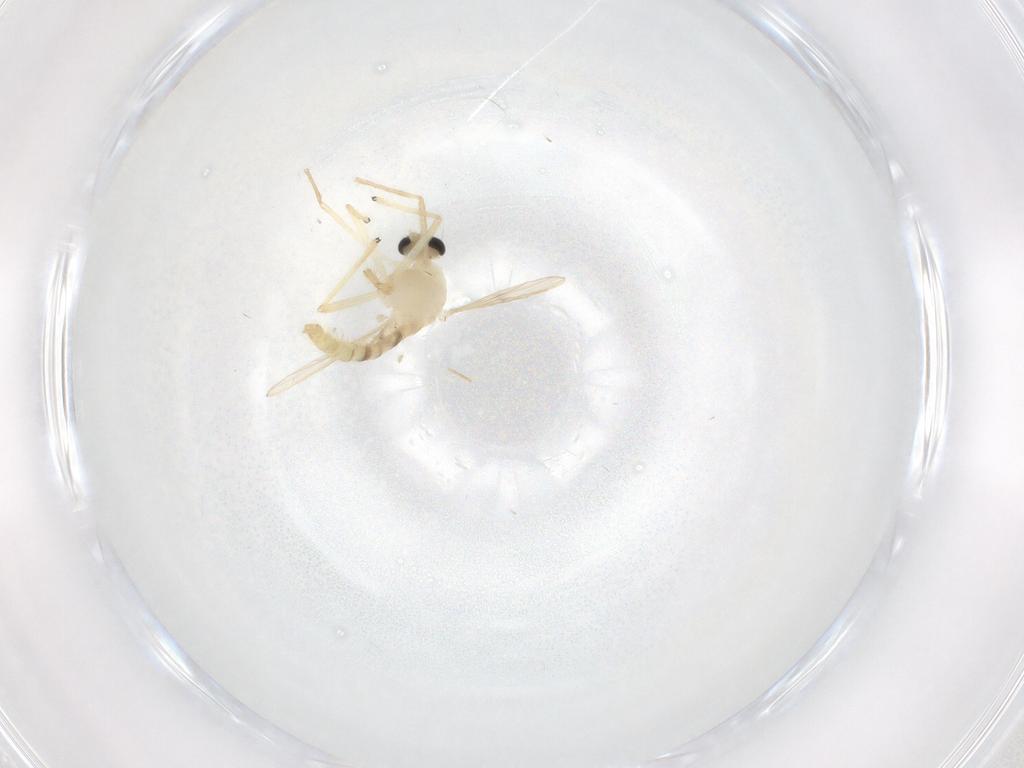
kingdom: Animalia
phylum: Arthropoda
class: Insecta
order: Diptera
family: Chironomidae
